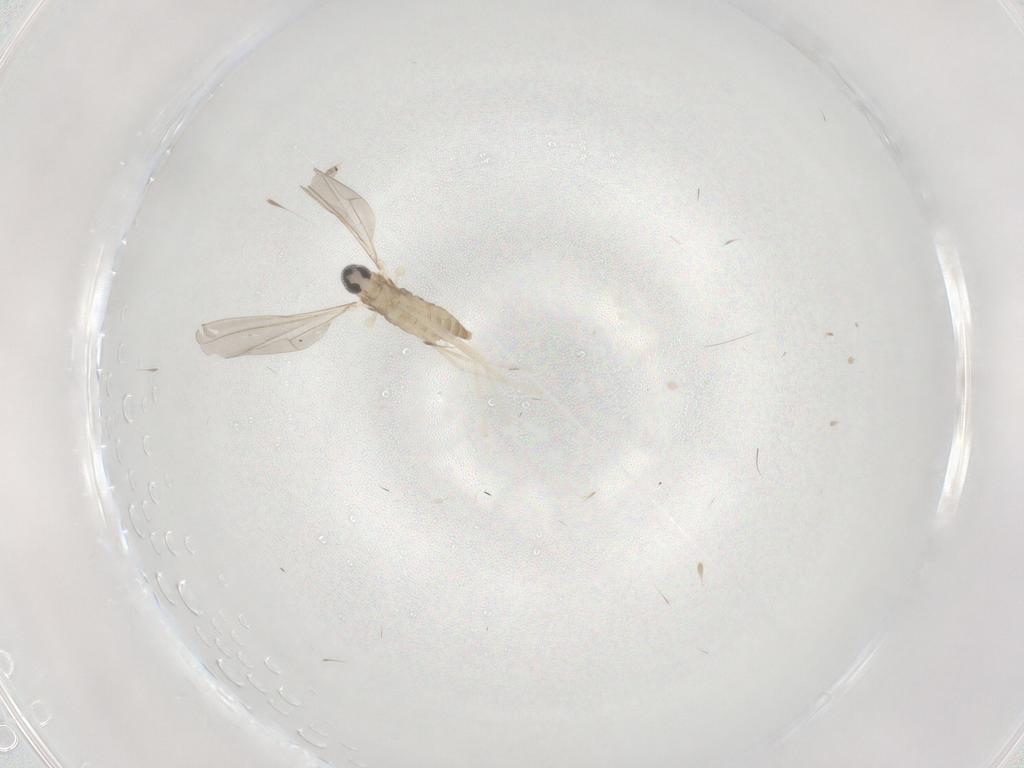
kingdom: Animalia
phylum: Arthropoda
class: Insecta
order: Diptera
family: Cecidomyiidae
